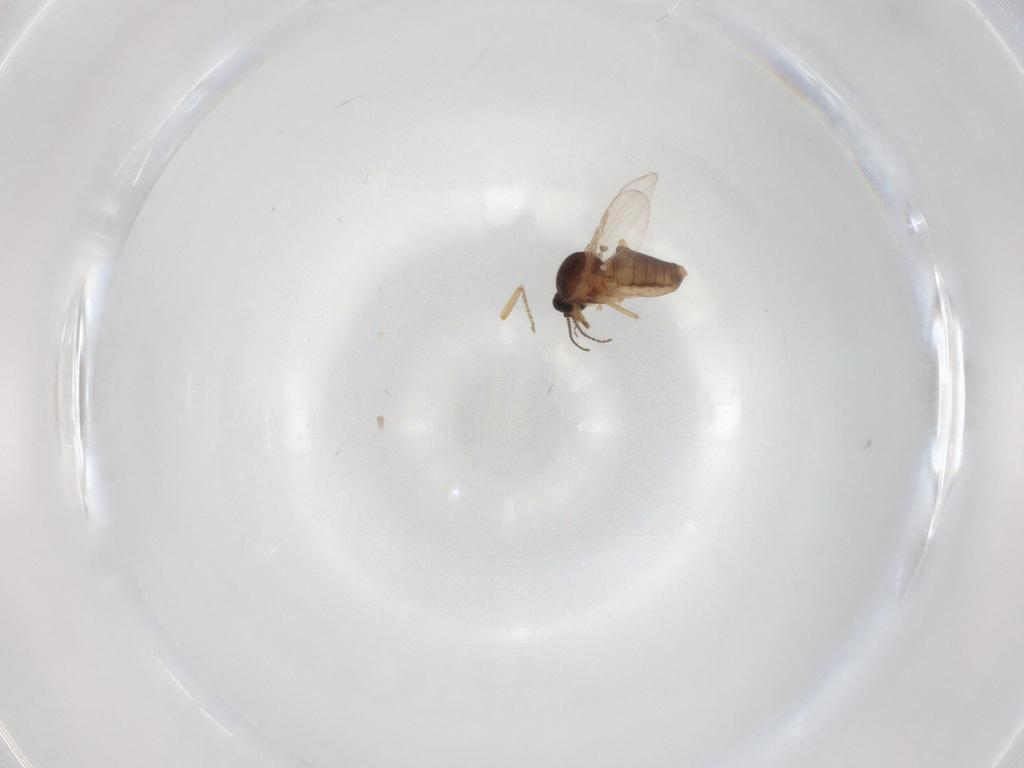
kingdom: Animalia
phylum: Arthropoda
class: Insecta
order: Diptera
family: Ceratopogonidae
